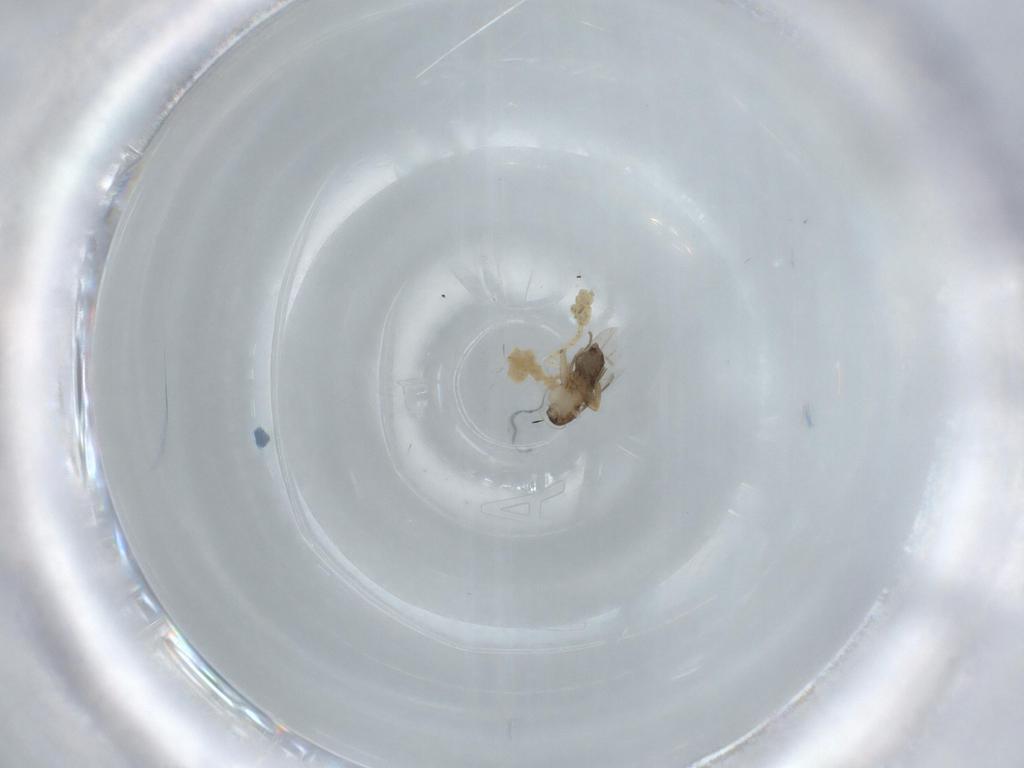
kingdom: Animalia
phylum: Arthropoda
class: Insecta
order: Diptera
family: Phoridae
